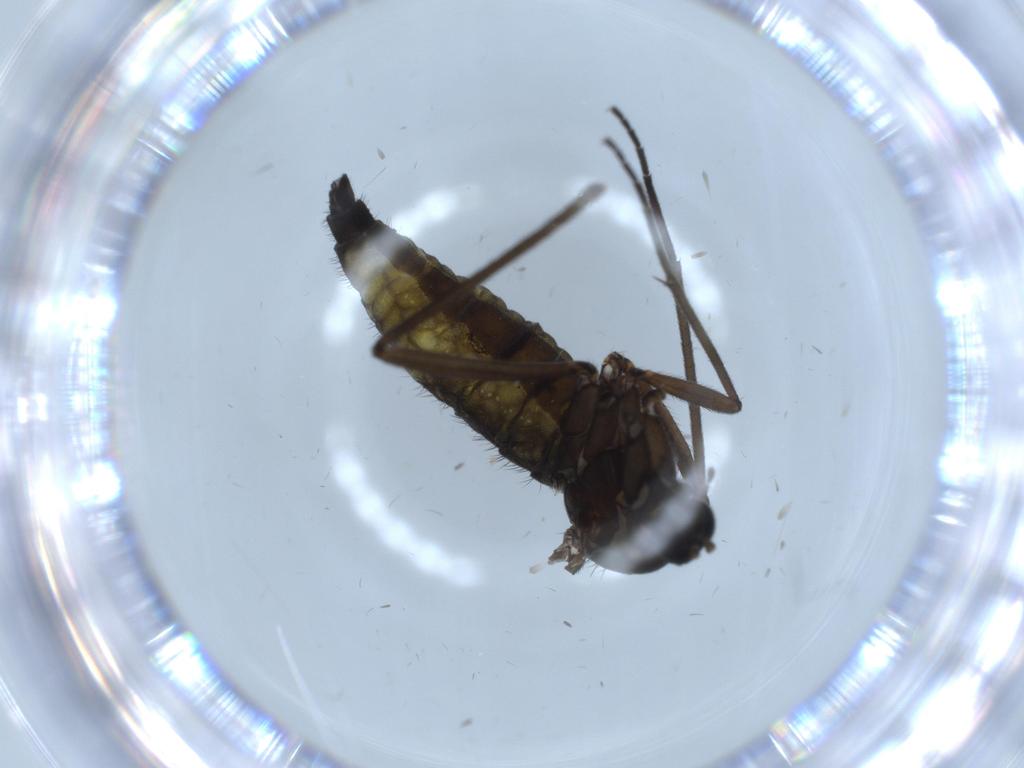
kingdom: Animalia
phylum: Arthropoda
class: Insecta
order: Diptera
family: Sciaridae
